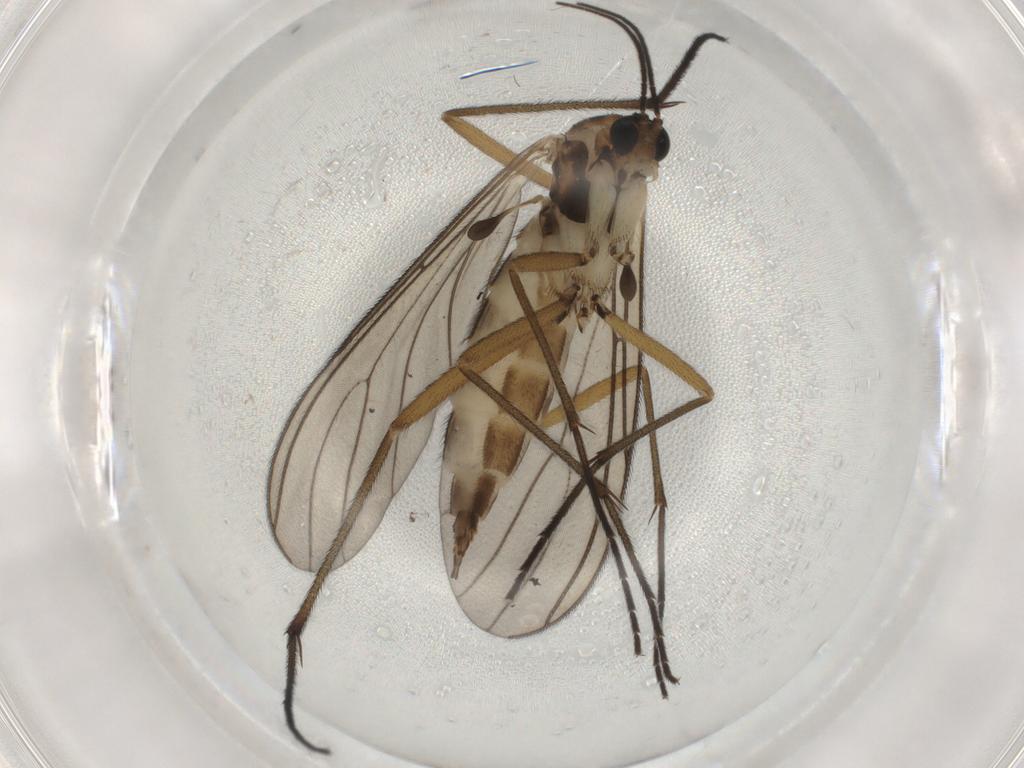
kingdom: Animalia
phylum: Arthropoda
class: Insecta
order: Diptera
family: Sciaridae
